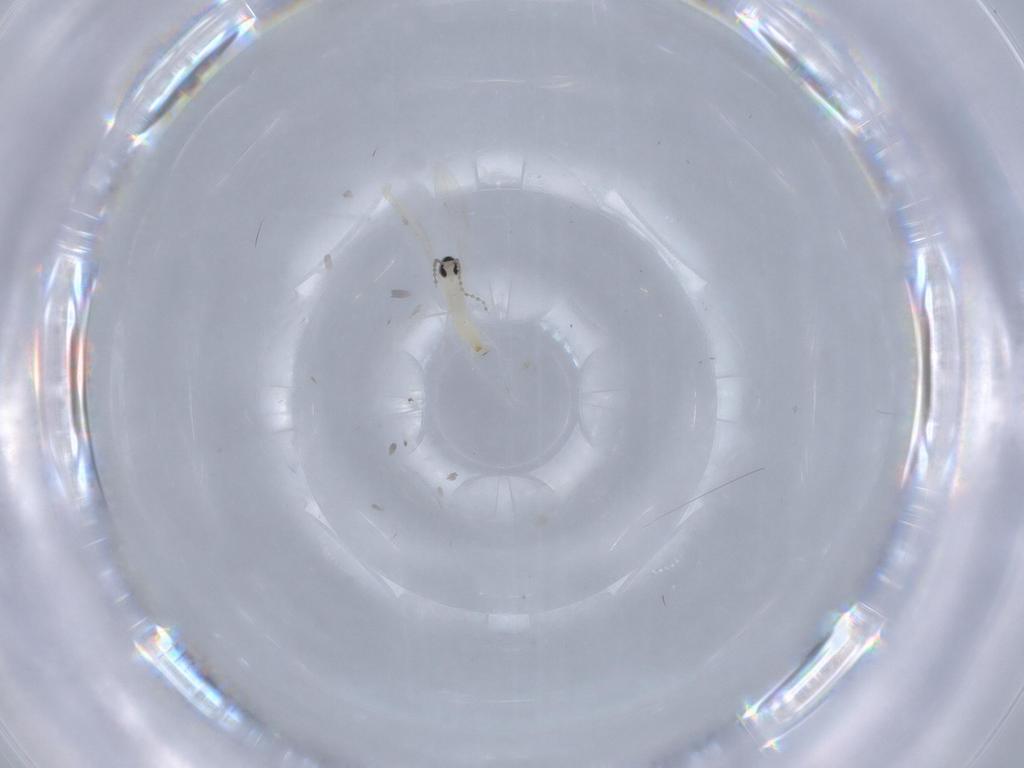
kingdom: Animalia
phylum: Arthropoda
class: Insecta
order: Diptera
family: Cecidomyiidae
